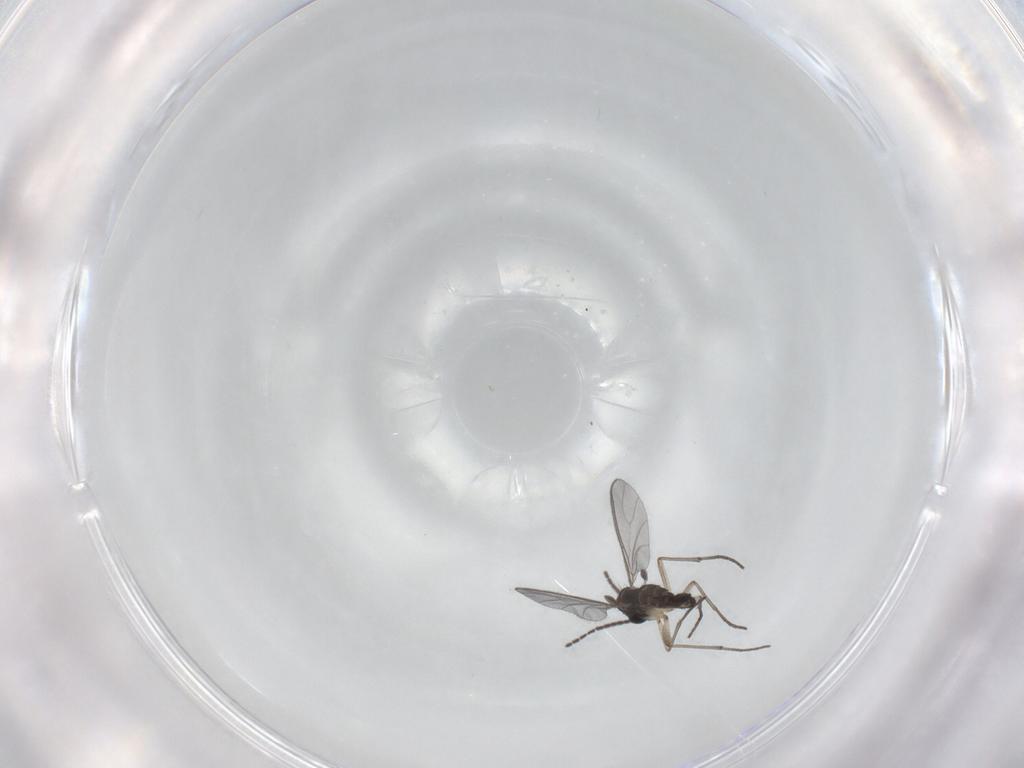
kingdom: Animalia
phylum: Arthropoda
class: Insecta
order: Diptera
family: Sciaridae
